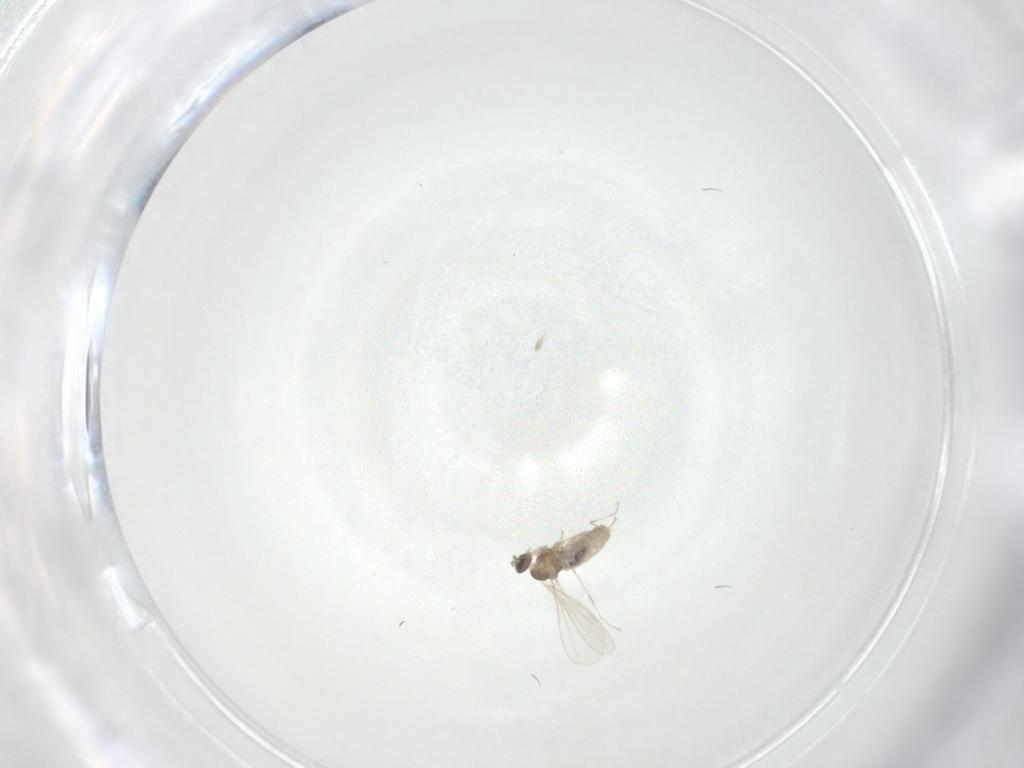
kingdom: Animalia
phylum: Arthropoda
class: Insecta
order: Diptera
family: Cecidomyiidae
